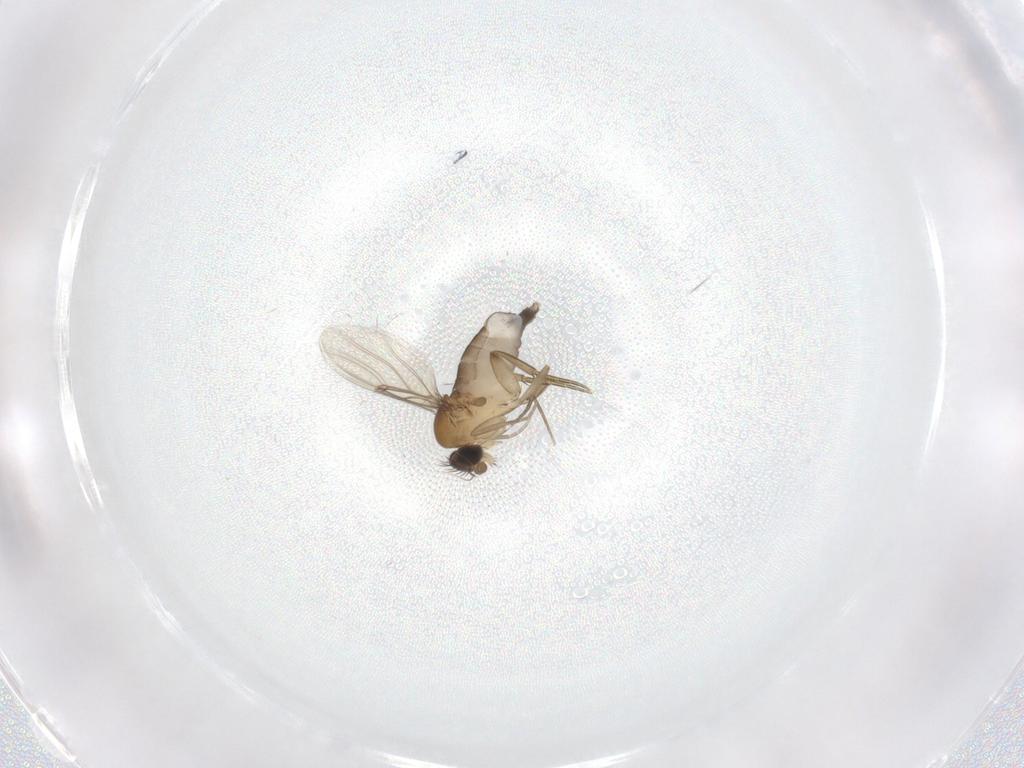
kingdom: Animalia
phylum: Arthropoda
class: Insecta
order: Diptera
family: Phoridae
